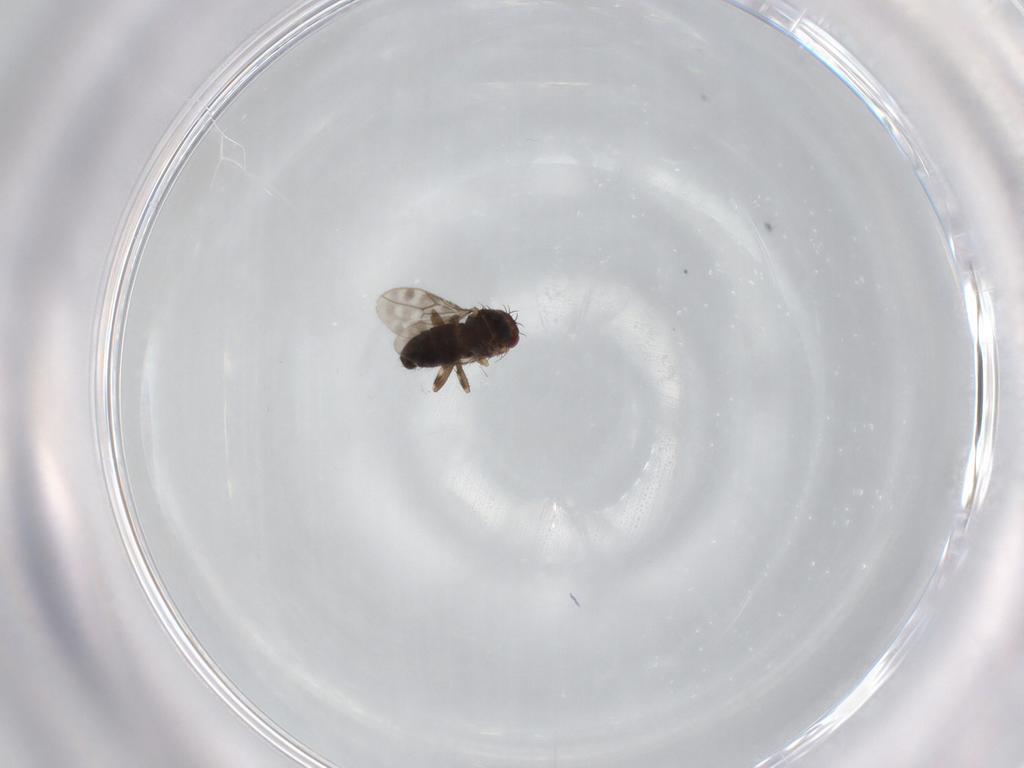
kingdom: Animalia
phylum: Arthropoda
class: Insecta
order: Diptera
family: Sphaeroceridae
